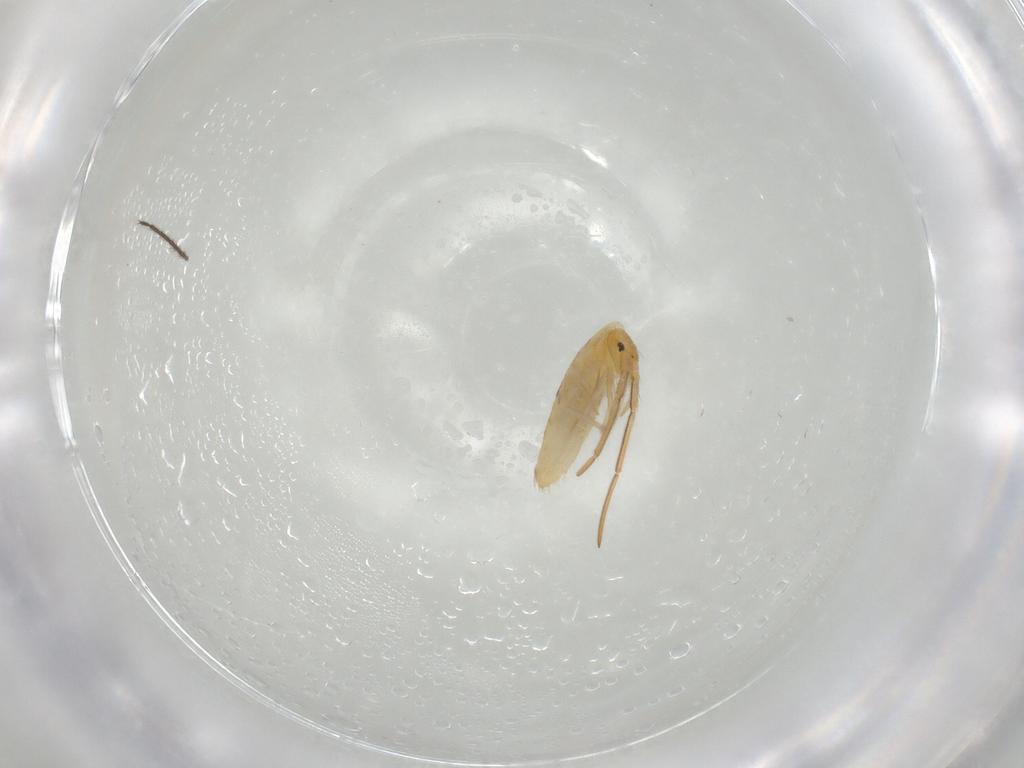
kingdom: Animalia
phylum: Arthropoda
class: Collembola
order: Entomobryomorpha
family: Entomobryidae
